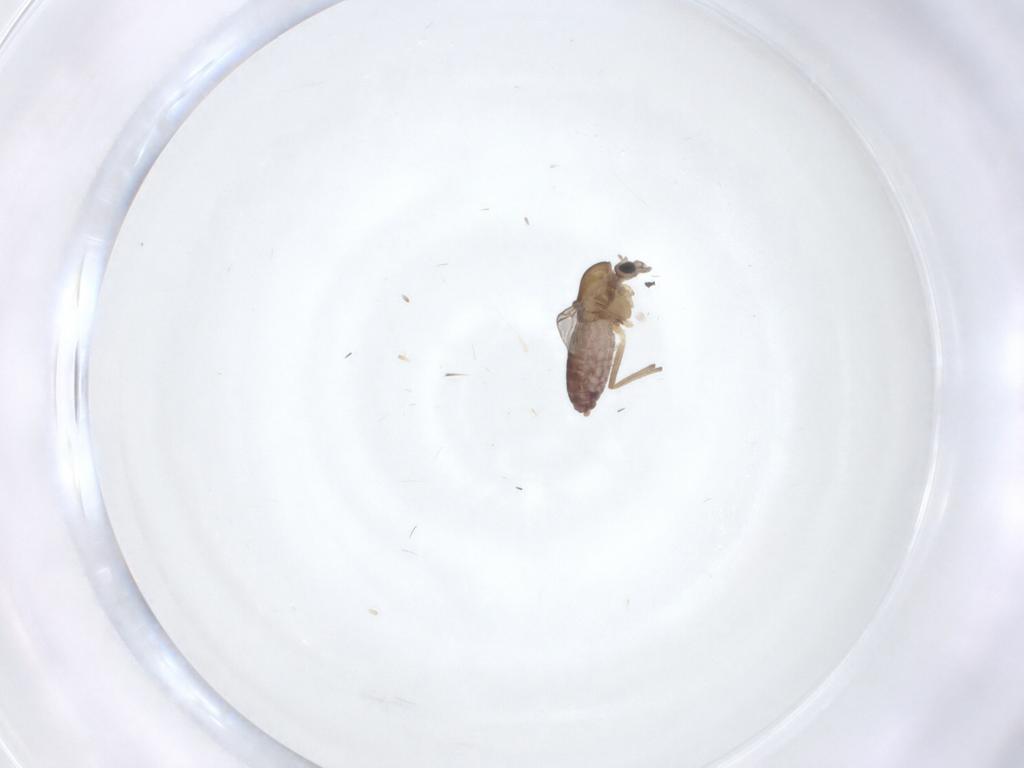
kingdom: Animalia
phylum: Arthropoda
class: Insecta
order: Diptera
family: Chironomidae
